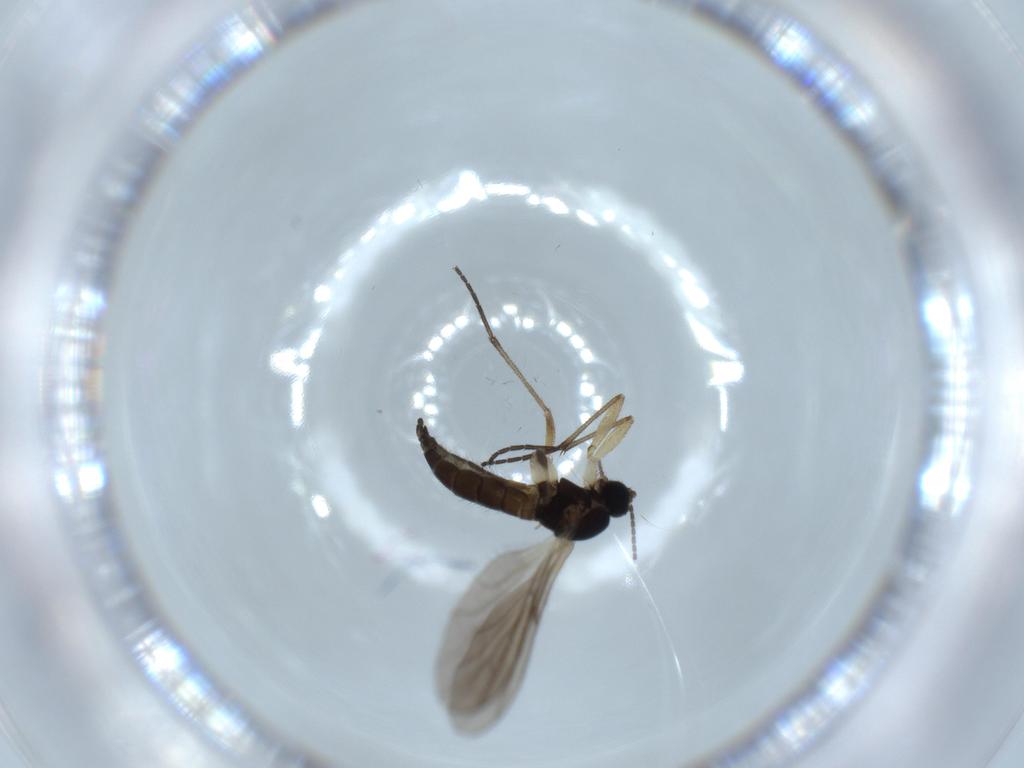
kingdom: Animalia
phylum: Arthropoda
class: Insecta
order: Diptera
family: Sciaridae
